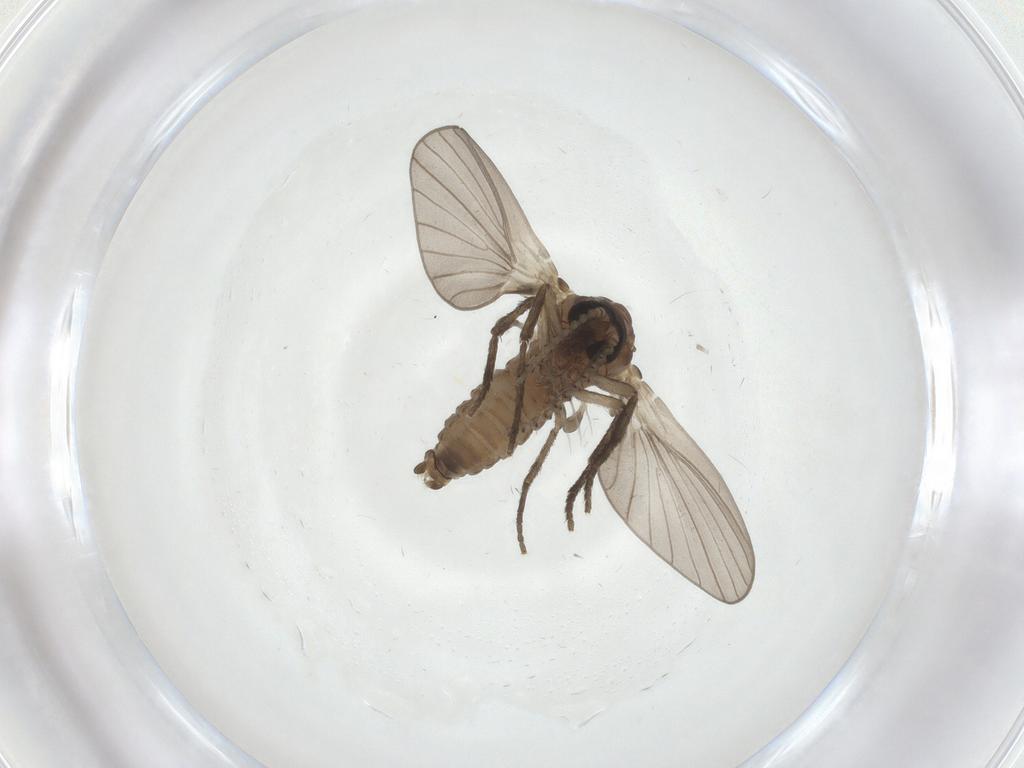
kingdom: Animalia
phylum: Arthropoda
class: Insecta
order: Diptera
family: Psychodidae
